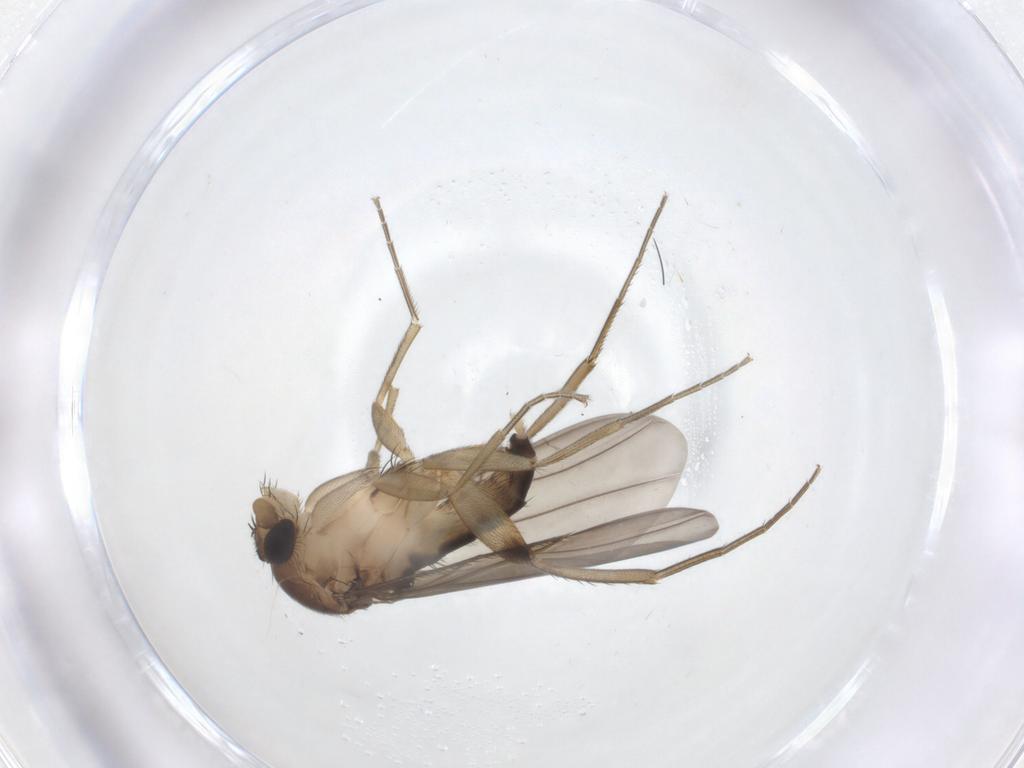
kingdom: Animalia
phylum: Arthropoda
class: Insecta
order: Diptera
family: Phoridae
